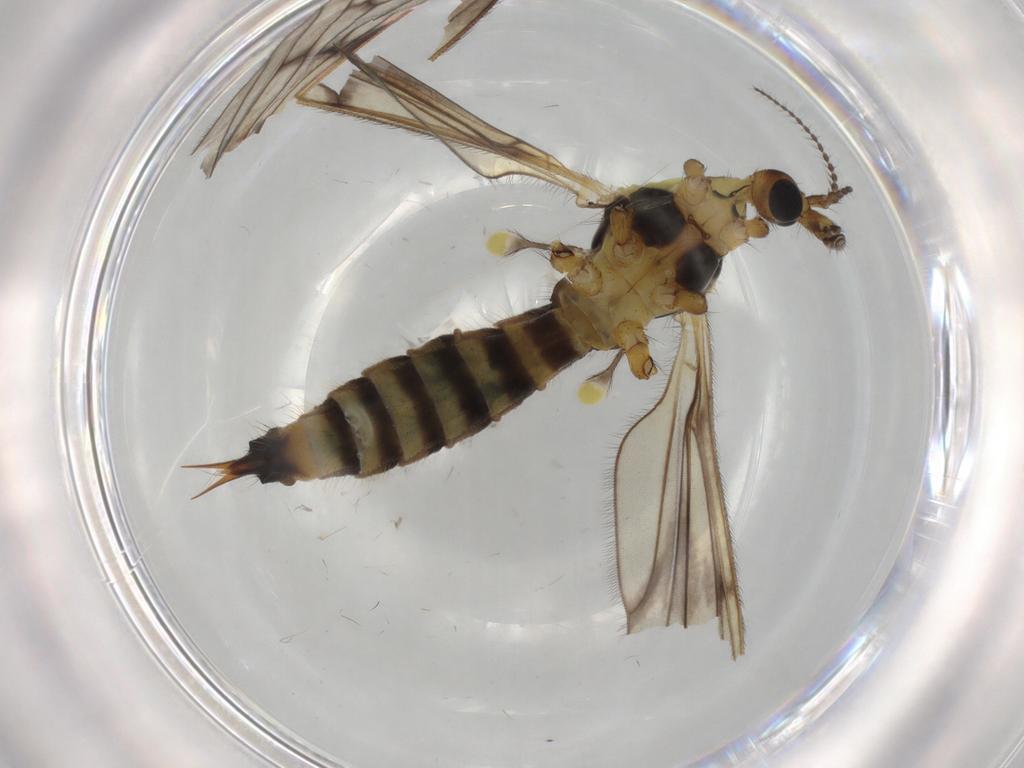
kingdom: Animalia
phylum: Arthropoda
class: Insecta
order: Diptera
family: Limoniidae
